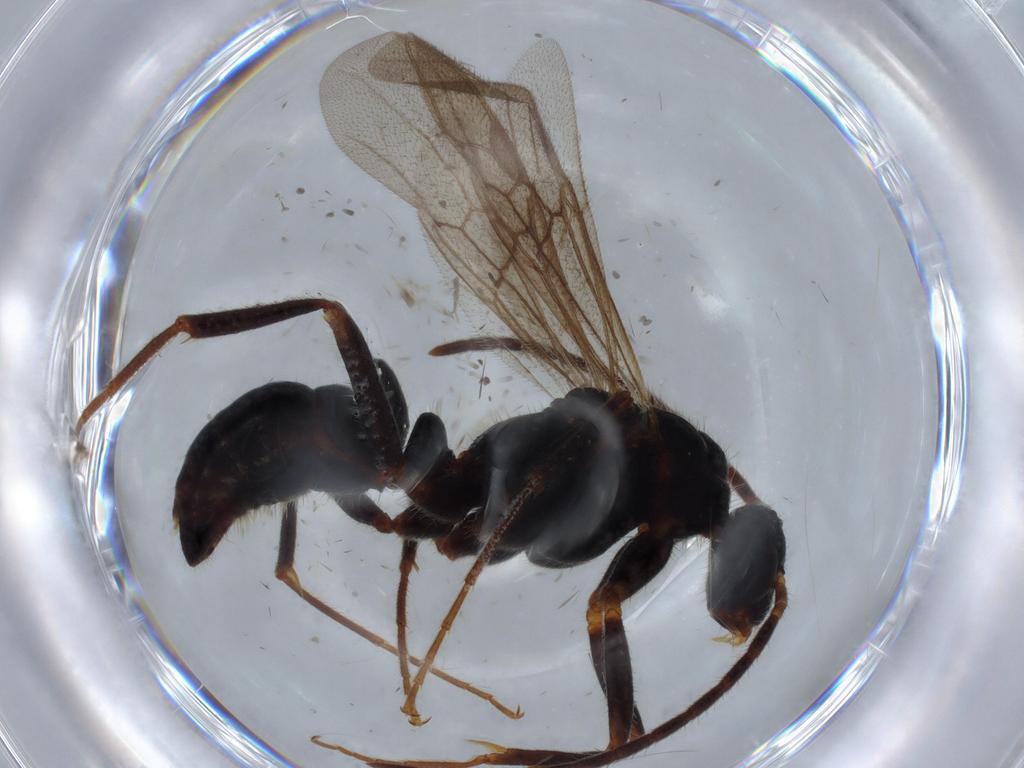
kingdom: Animalia
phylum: Arthropoda
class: Insecta
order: Hymenoptera
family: Formicidae
